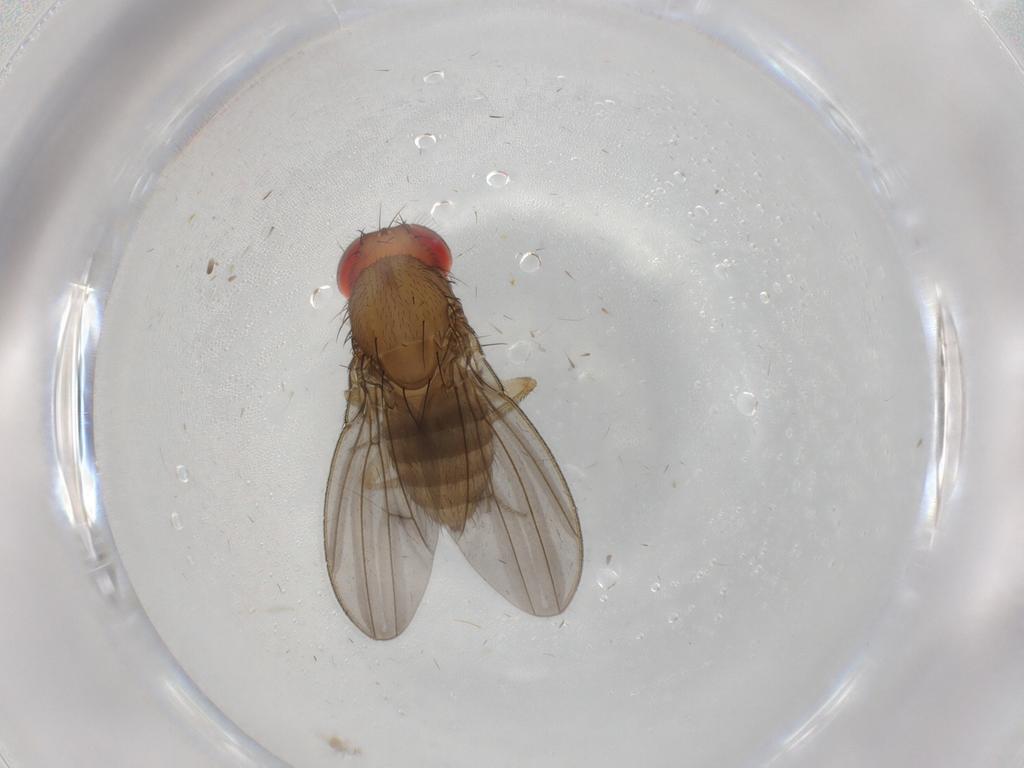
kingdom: Animalia
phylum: Arthropoda
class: Insecta
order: Diptera
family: Drosophilidae
